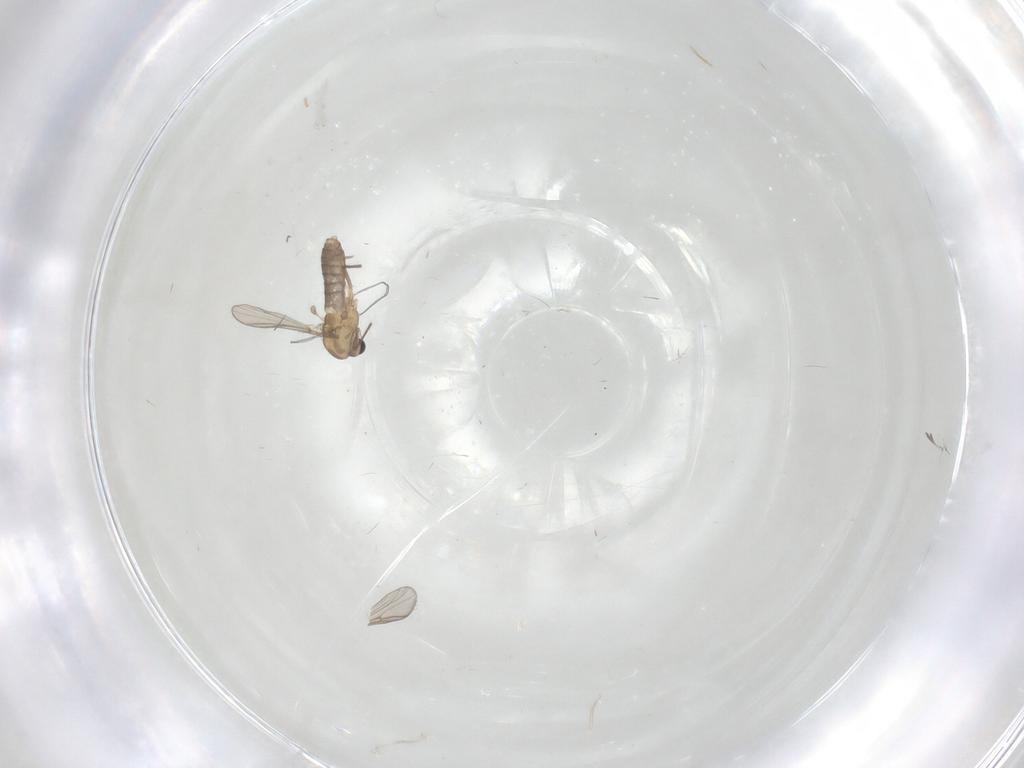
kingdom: Animalia
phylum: Arthropoda
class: Insecta
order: Diptera
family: Chironomidae
